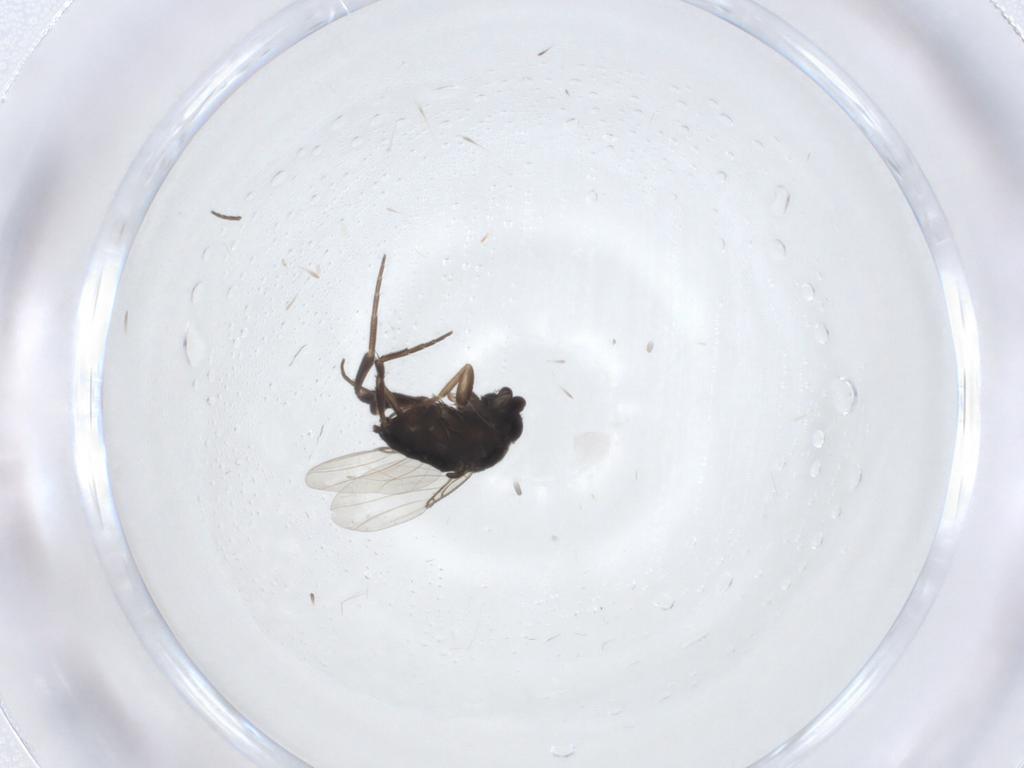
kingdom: Animalia
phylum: Arthropoda
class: Insecta
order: Diptera
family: Phoridae
